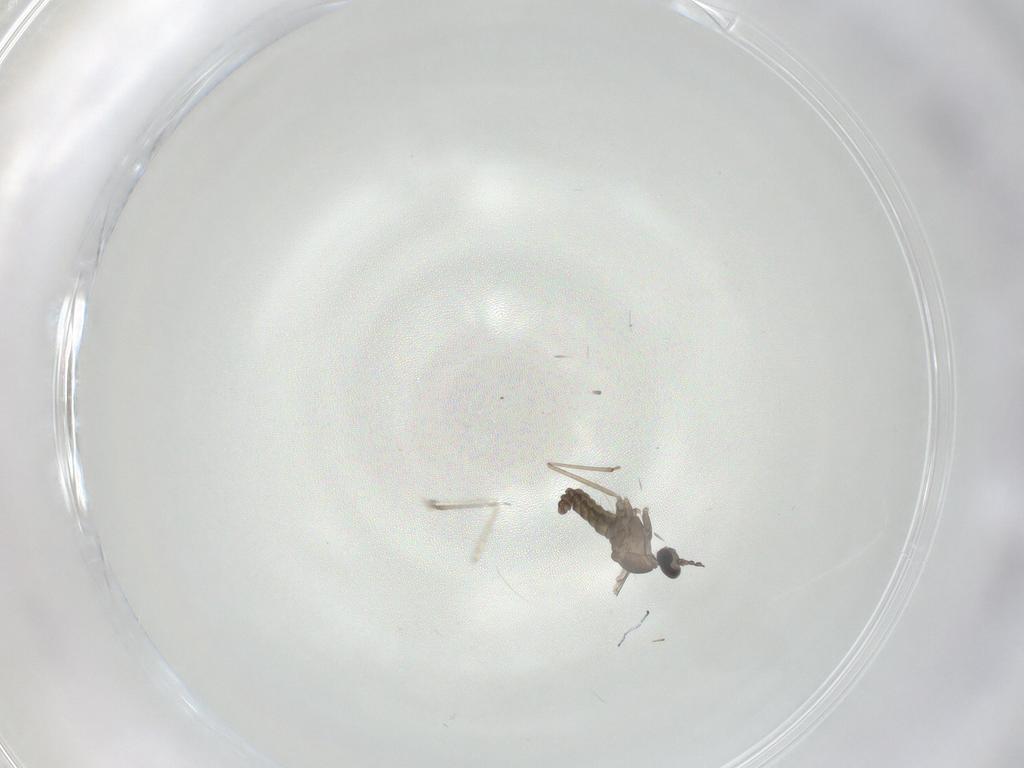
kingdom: Animalia
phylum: Arthropoda
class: Insecta
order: Diptera
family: Cecidomyiidae
